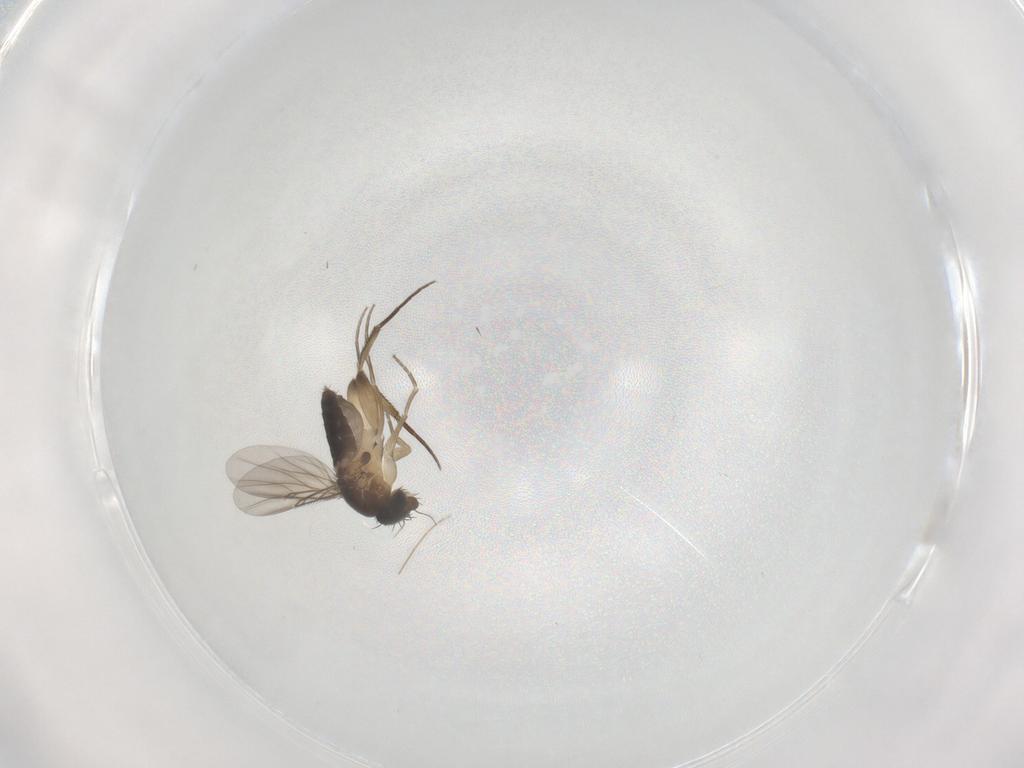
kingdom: Animalia
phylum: Arthropoda
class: Insecta
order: Diptera
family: Chironomidae
